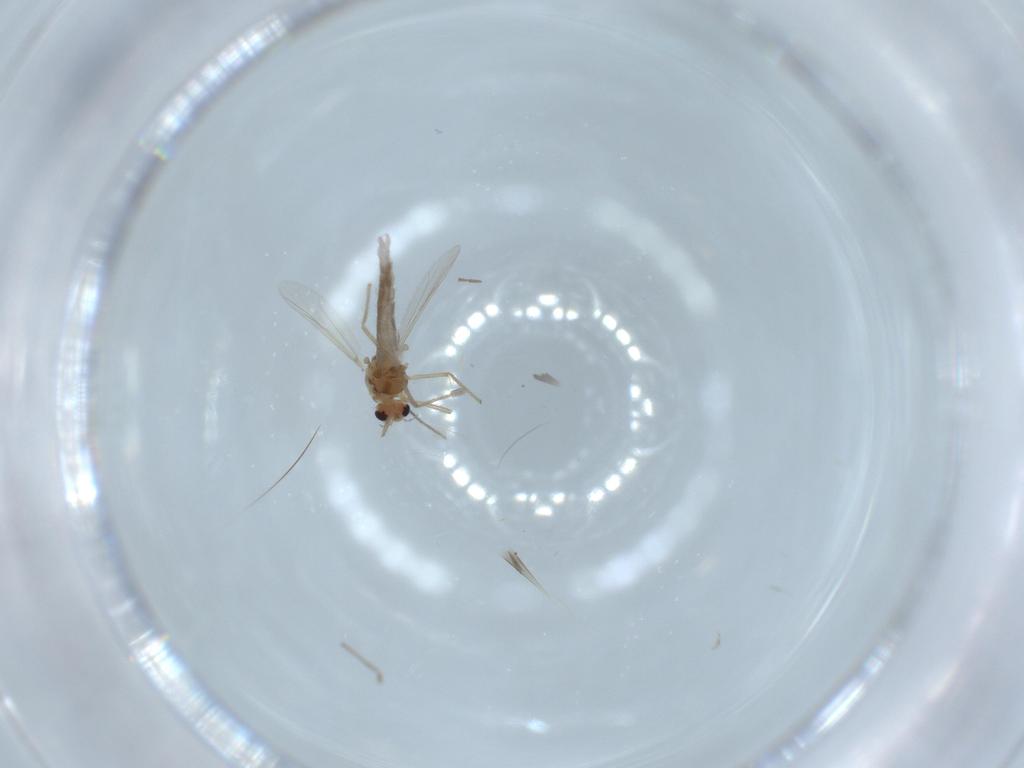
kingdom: Animalia
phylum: Arthropoda
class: Insecta
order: Diptera
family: Chironomidae
